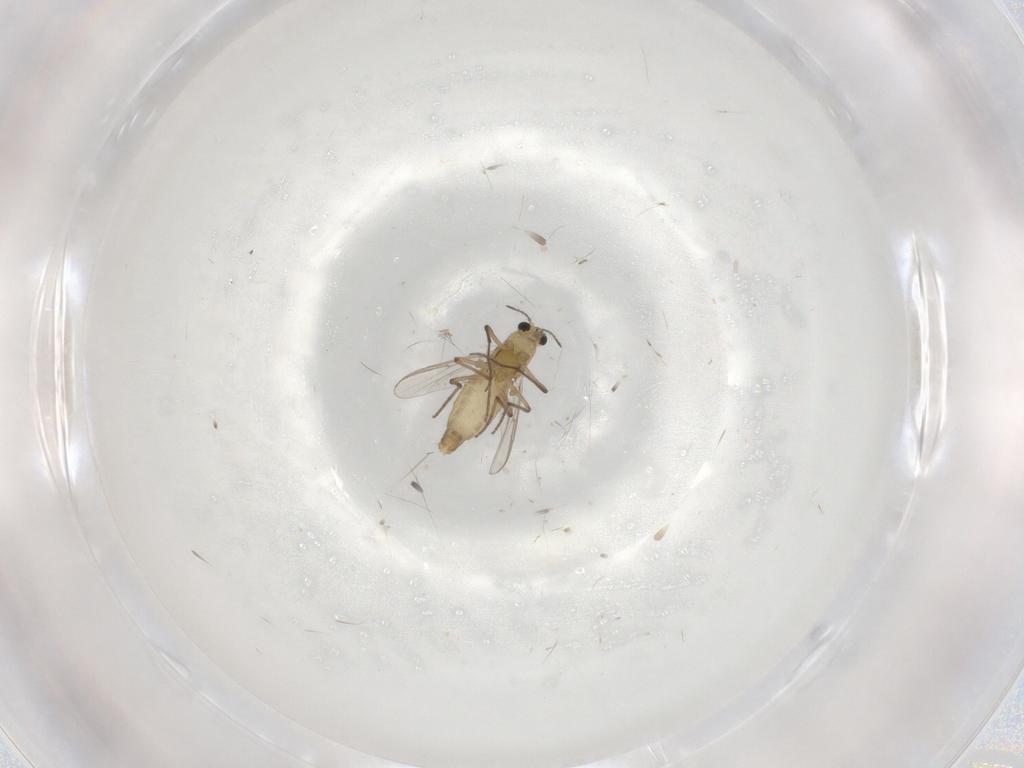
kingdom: Animalia
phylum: Arthropoda
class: Insecta
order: Diptera
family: Cecidomyiidae
